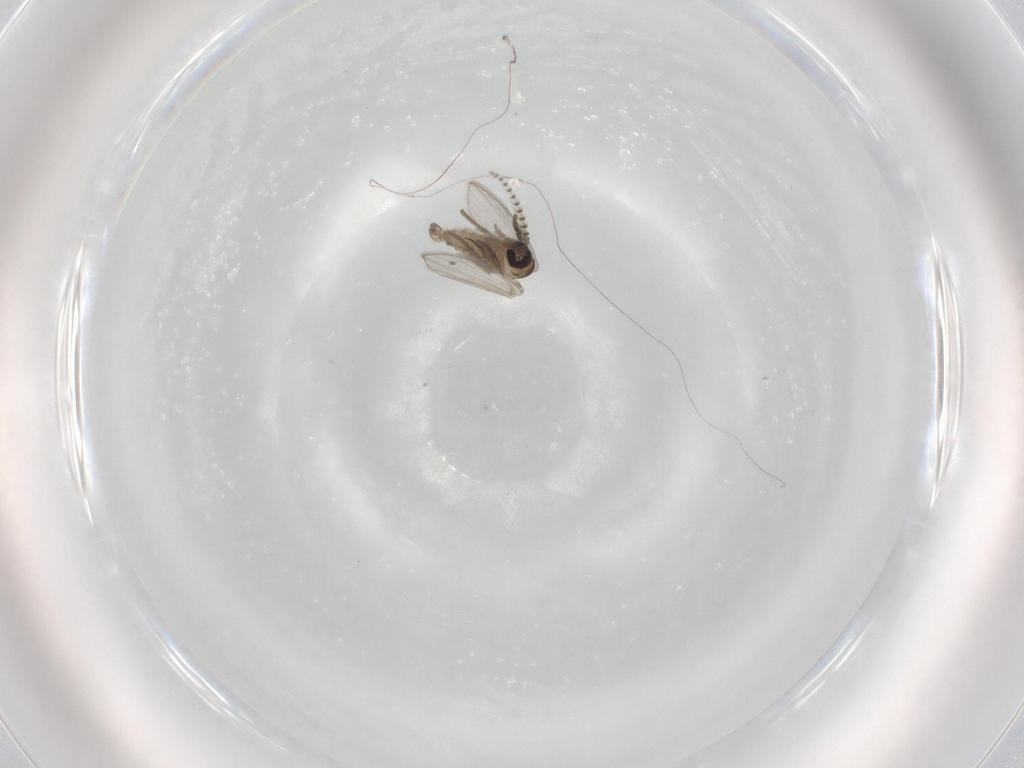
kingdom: Animalia
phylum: Arthropoda
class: Insecta
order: Diptera
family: Psychodidae
